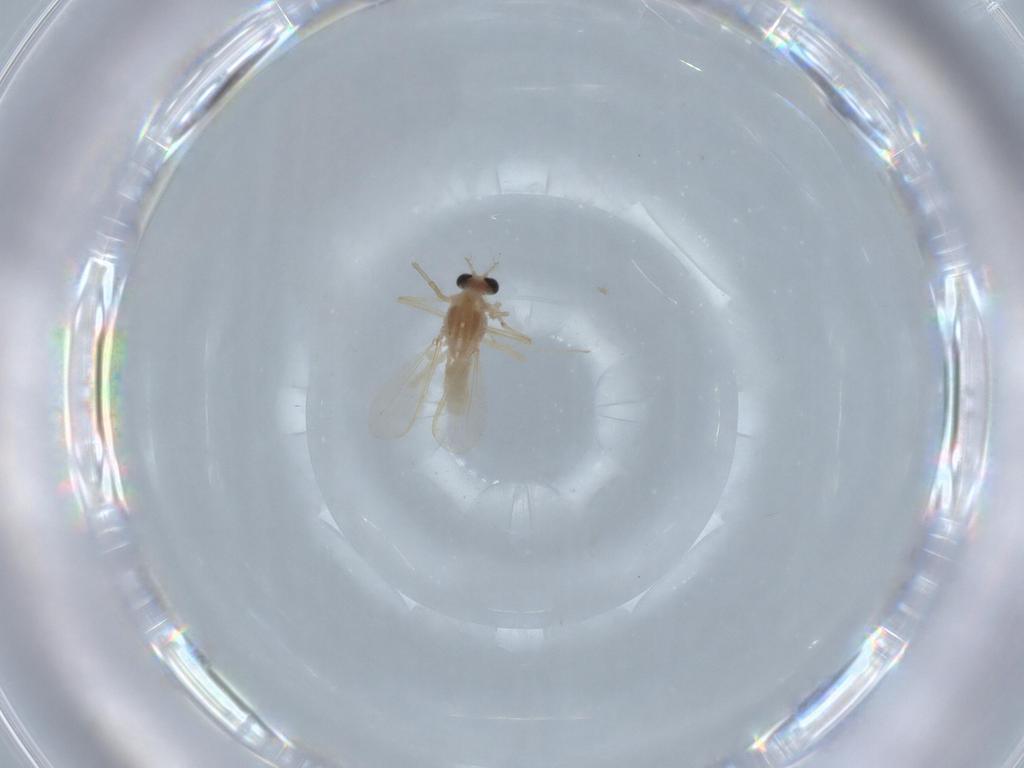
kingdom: Animalia
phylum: Arthropoda
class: Insecta
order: Diptera
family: Chironomidae
